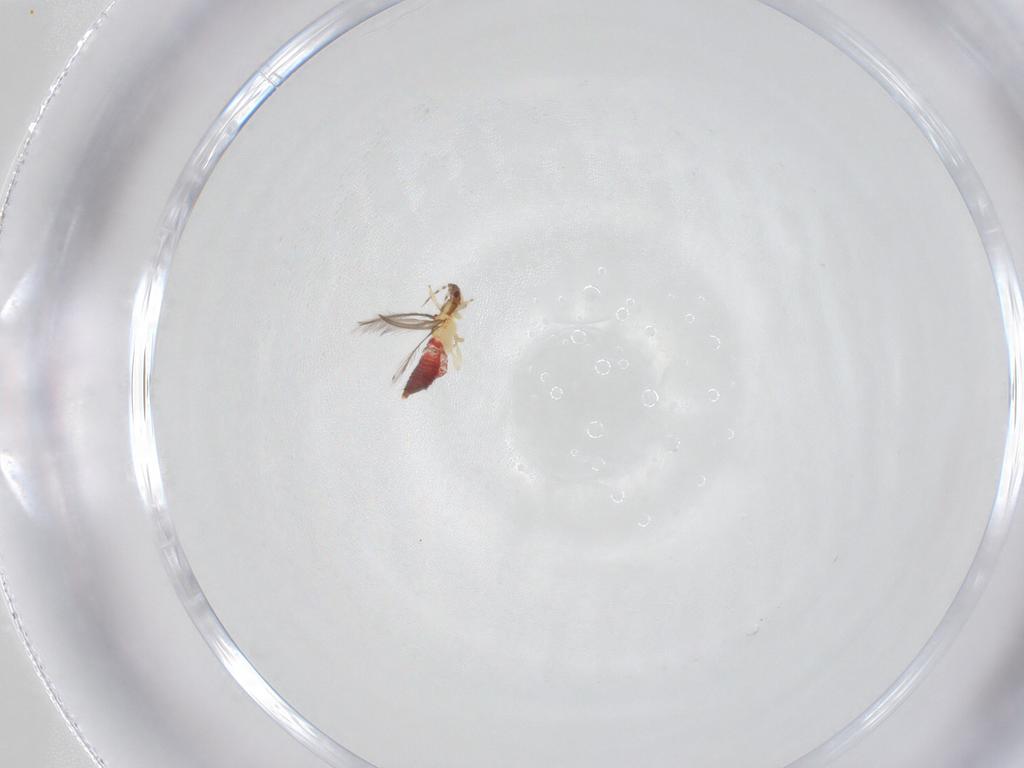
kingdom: Animalia
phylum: Arthropoda
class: Insecta
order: Thysanoptera
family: Thripidae
